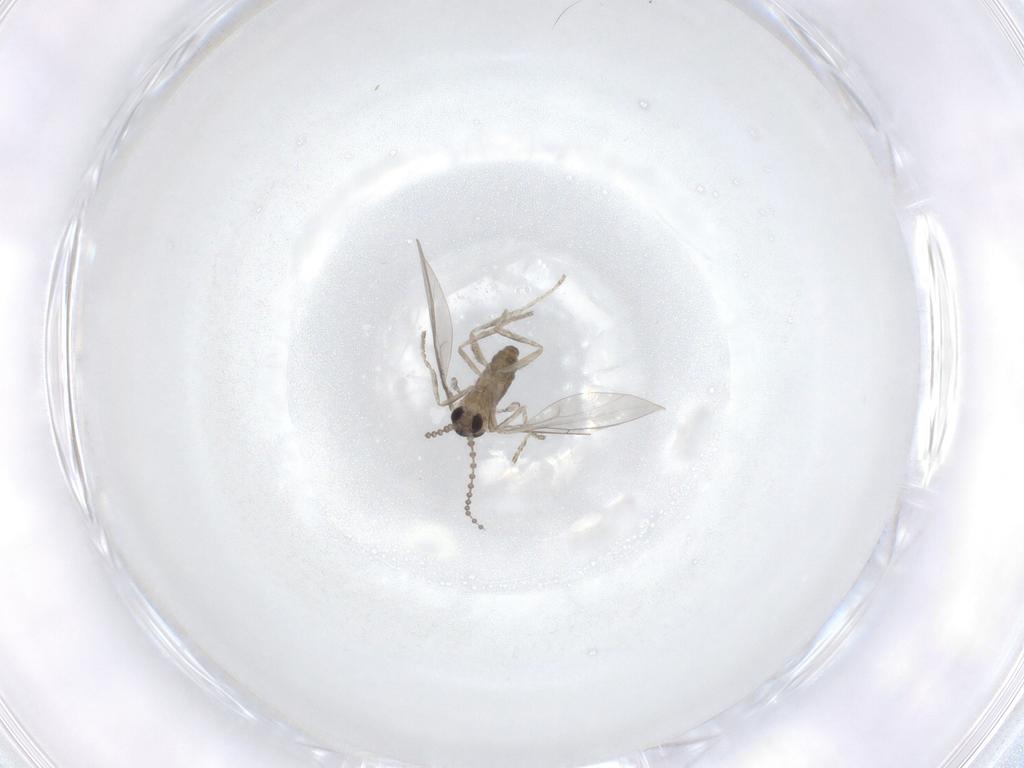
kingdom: Animalia
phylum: Arthropoda
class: Insecta
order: Diptera
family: Cecidomyiidae
